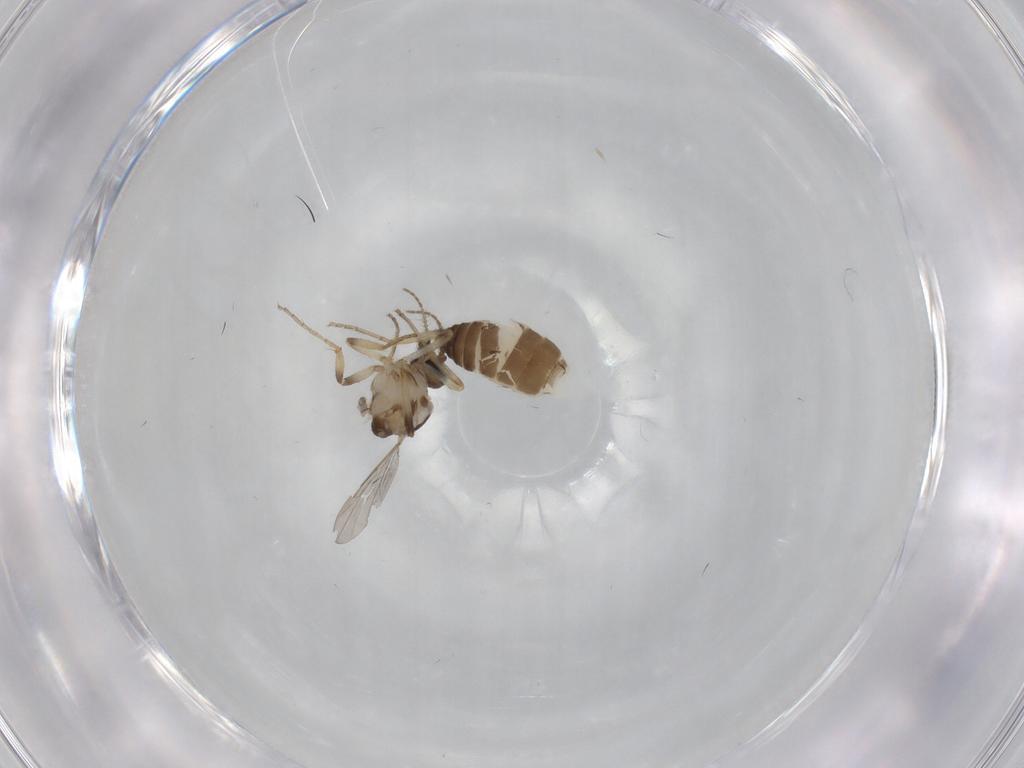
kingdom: Animalia
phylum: Arthropoda
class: Insecta
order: Diptera
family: Ceratopogonidae
